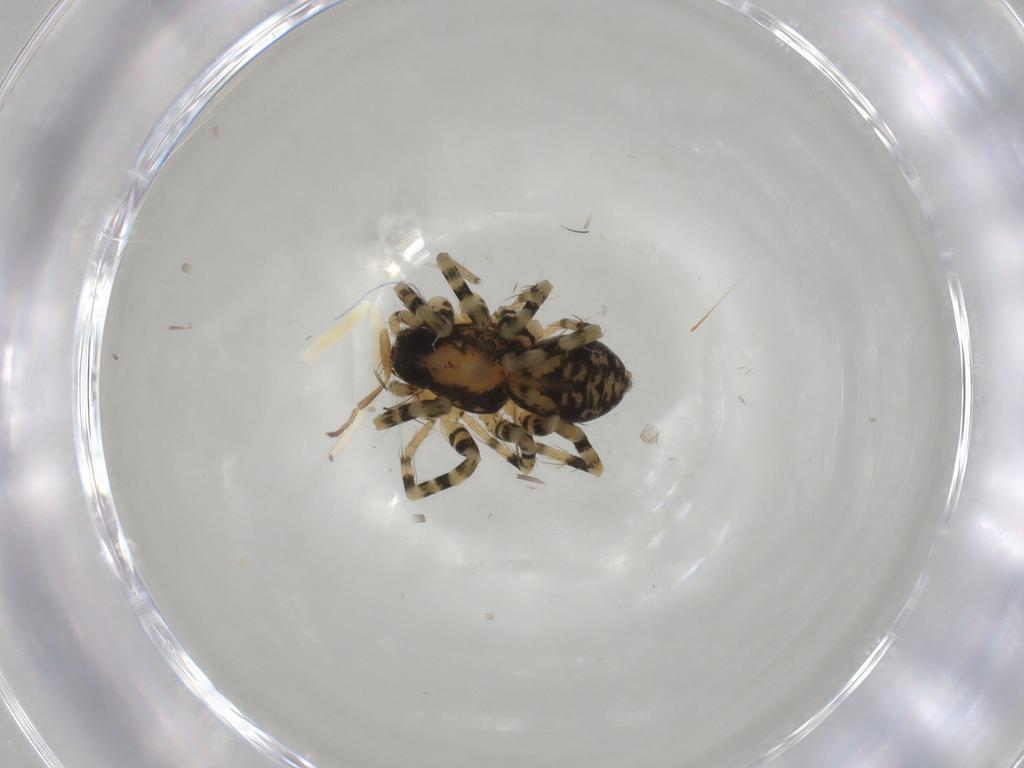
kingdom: Animalia
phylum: Arthropoda
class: Arachnida
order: Araneae
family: Philodromidae
